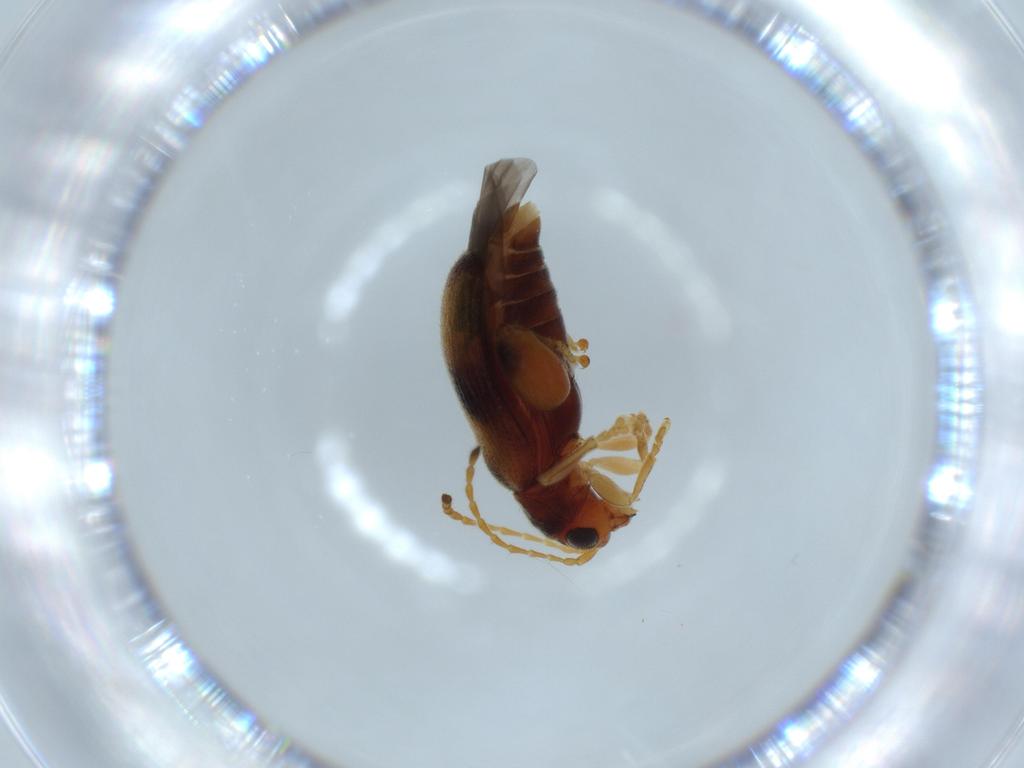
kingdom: Animalia
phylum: Arthropoda
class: Insecta
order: Coleoptera
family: Chrysomelidae
